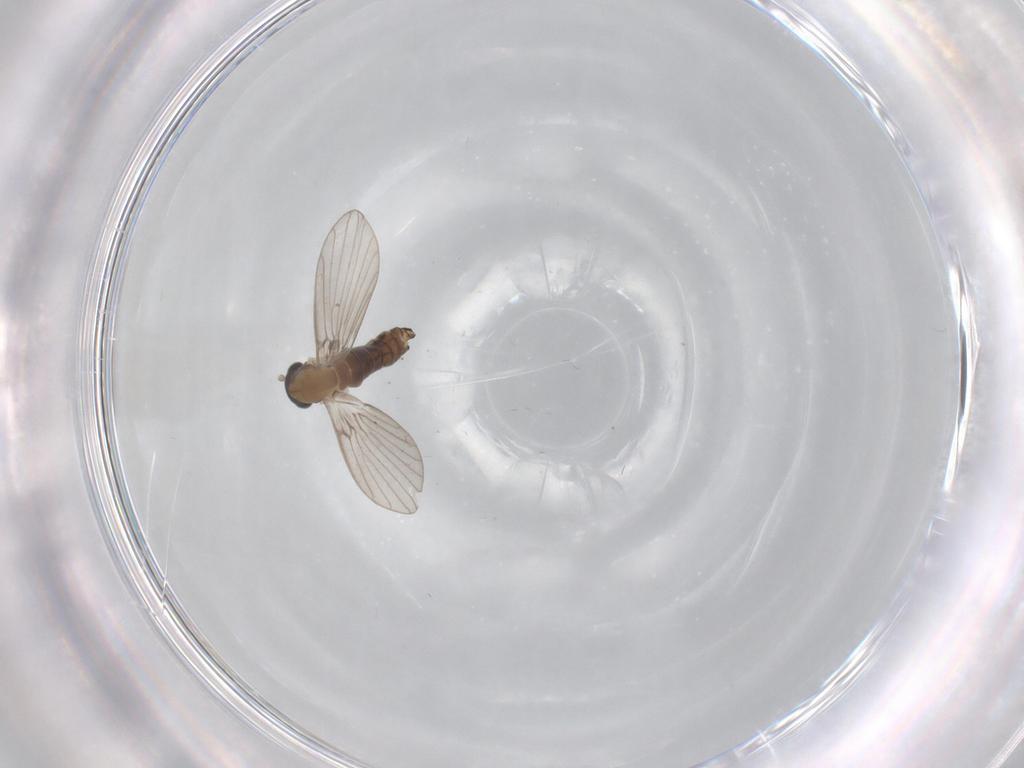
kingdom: Animalia
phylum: Arthropoda
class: Insecta
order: Diptera
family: Psychodidae
